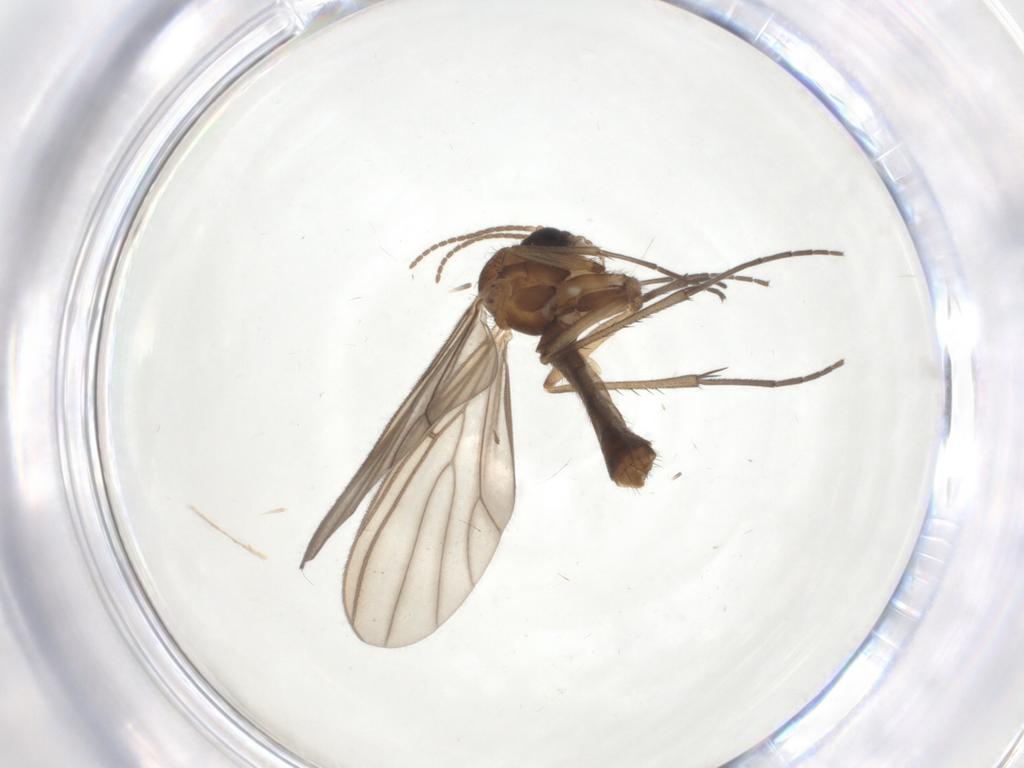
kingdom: Animalia
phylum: Arthropoda
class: Insecta
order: Diptera
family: Mycetophilidae
